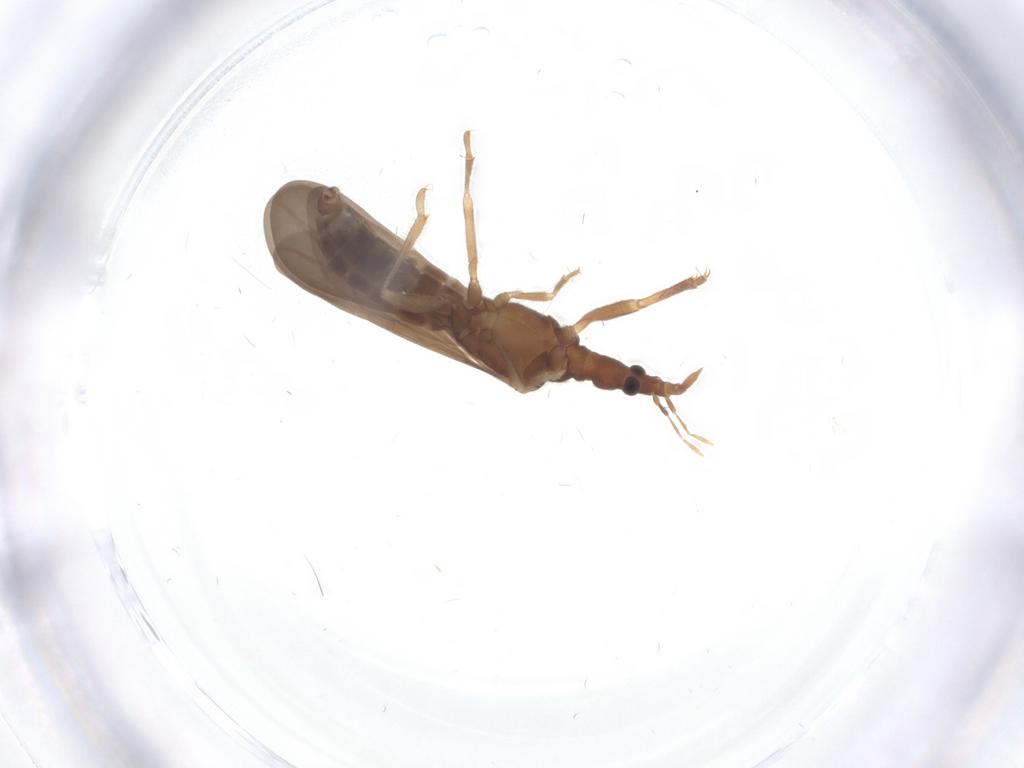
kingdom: Animalia
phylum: Arthropoda
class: Insecta
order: Hemiptera
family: Enicocephalidae
